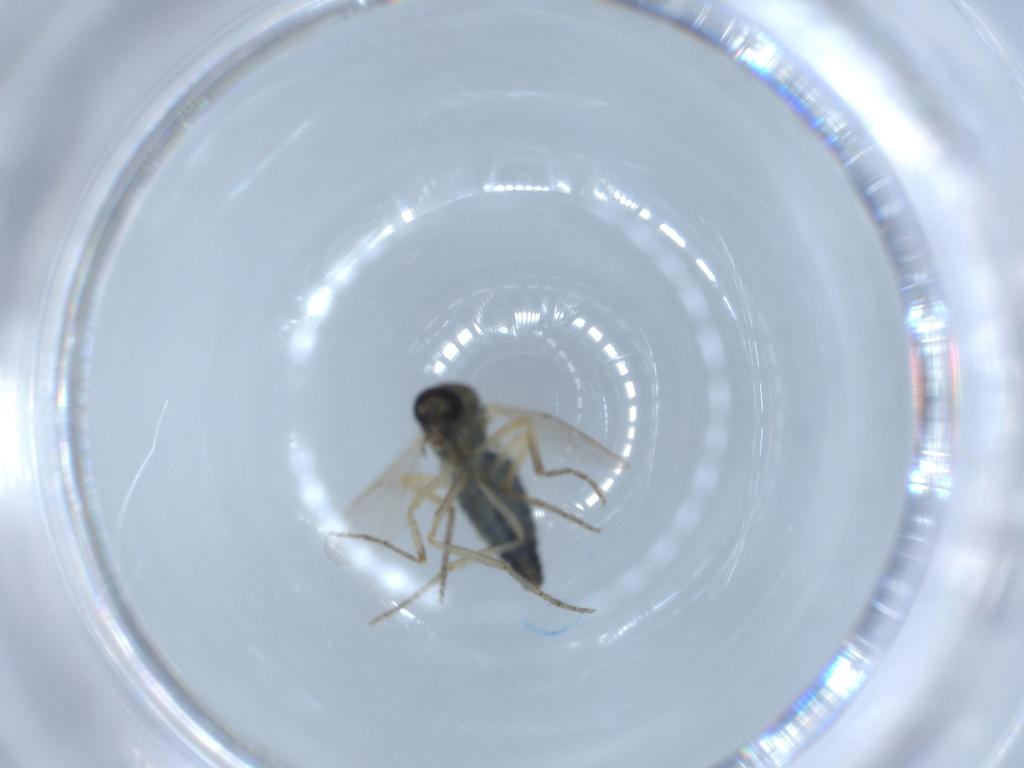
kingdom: Animalia
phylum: Arthropoda
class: Insecta
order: Diptera
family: Ceratopogonidae
